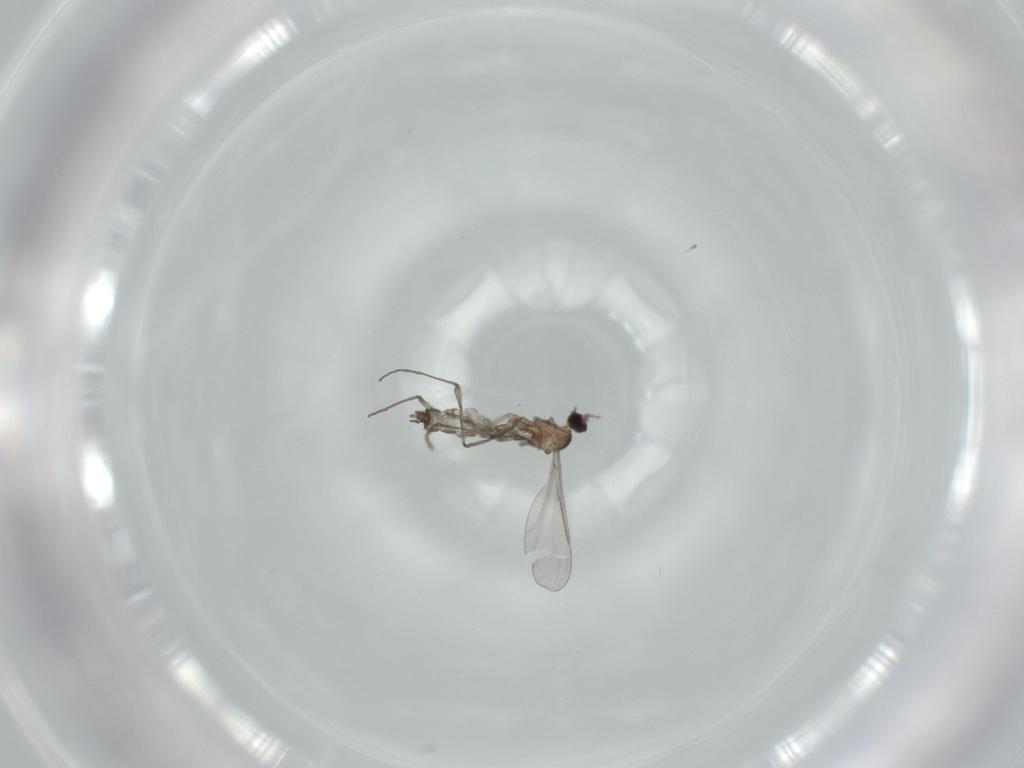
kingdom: Animalia
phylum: Arthropoda
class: Insecta
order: Diptera
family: Cecidomyiidae
